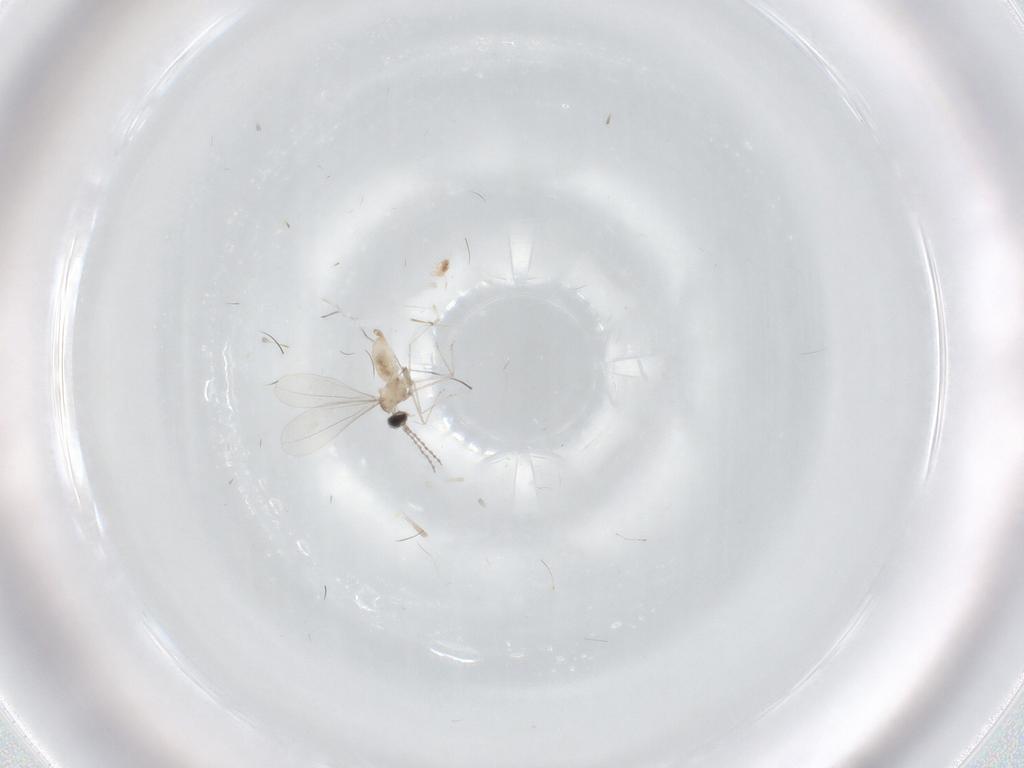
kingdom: Animalia
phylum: Arthropoda
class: Insecta
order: Diptera
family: Cecidomyiidae
